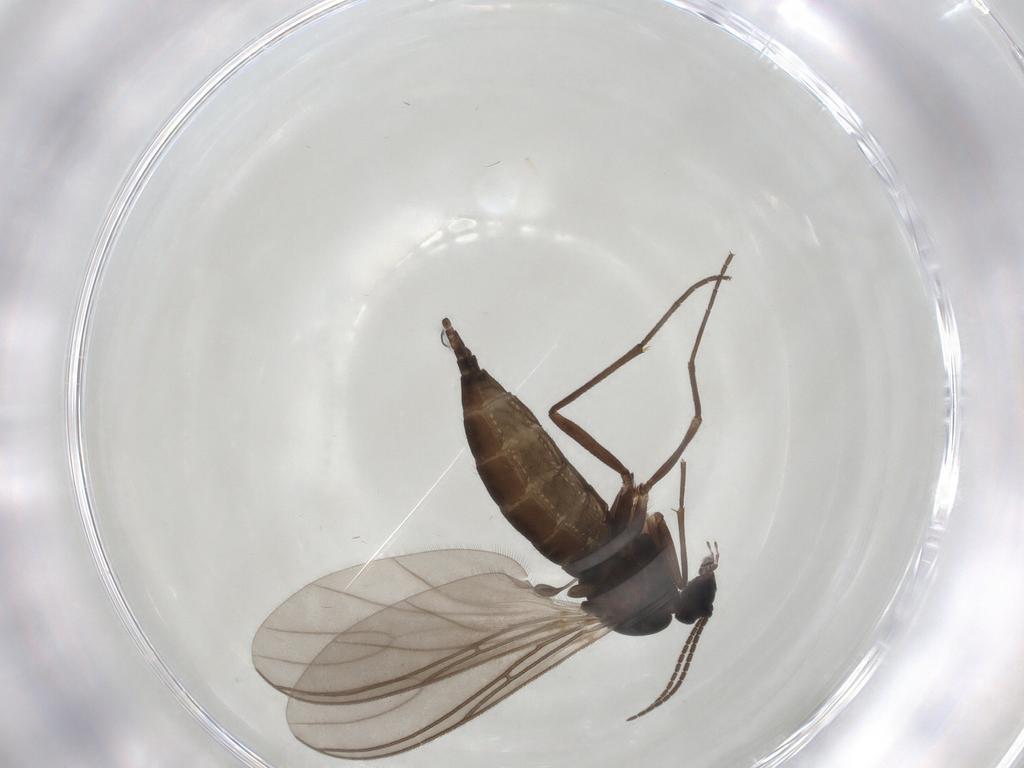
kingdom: Animalia
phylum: Arthropoda
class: Insecta
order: Diptera
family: Sciaridae
